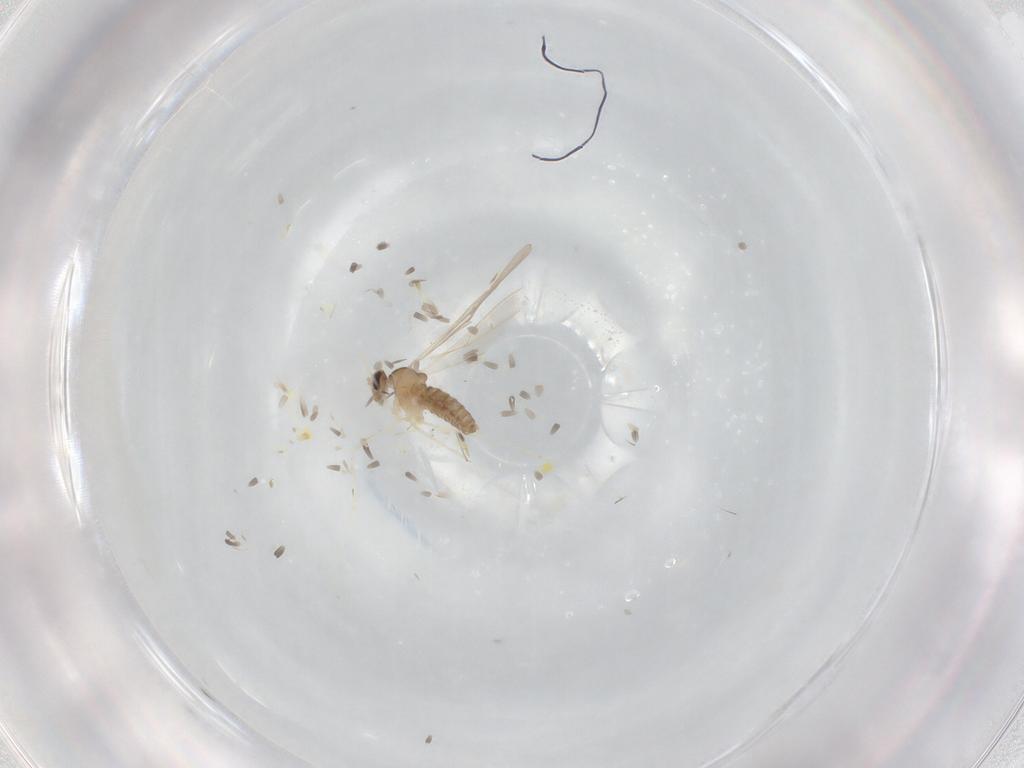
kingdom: Animalia
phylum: Arthropoda
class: Insecta
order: Diptera
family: Cecidomyiidae
